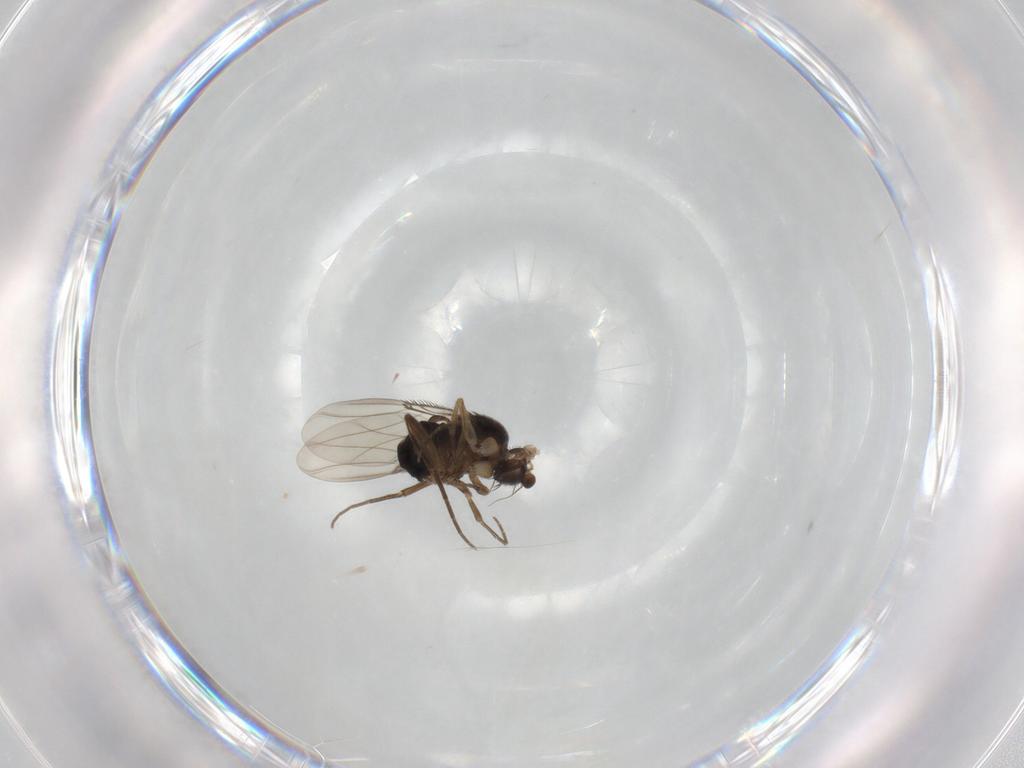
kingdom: Animalia
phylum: Arthropoda
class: Insecta
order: Diptera
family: Phoridae
